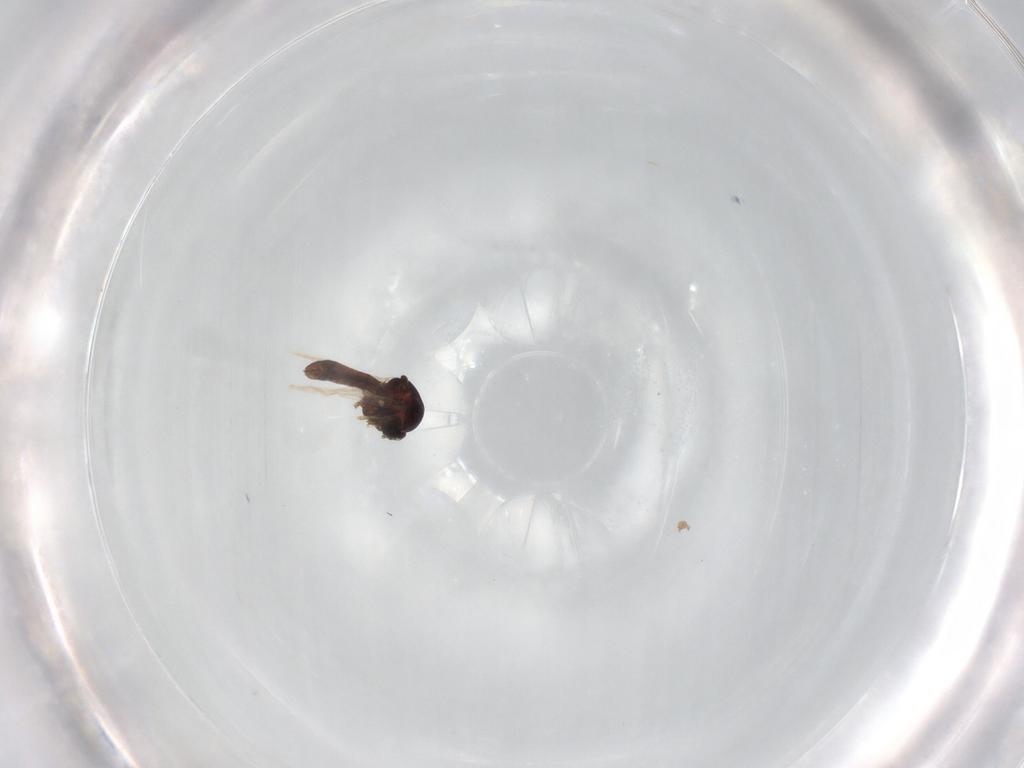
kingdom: Animalia
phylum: Arthropoda
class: Insecta
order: Diptera
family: Ceratopogonidae
